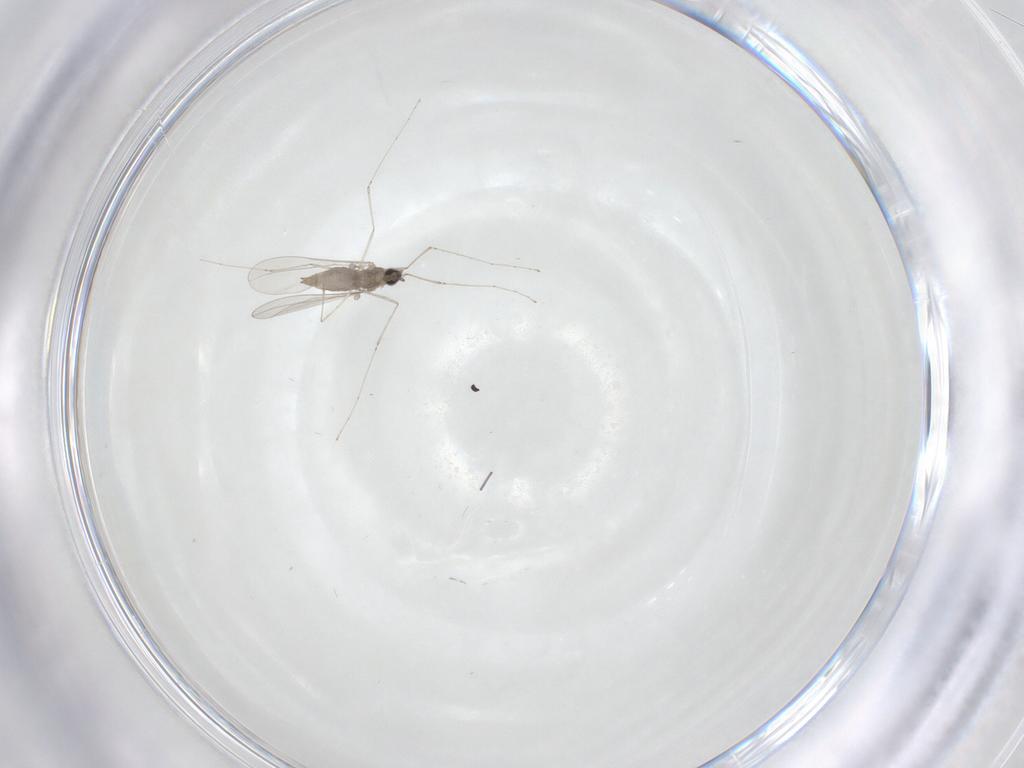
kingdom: Animalia
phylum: Arthropoda
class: Insecta
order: Diptera
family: Cecidomyiidae
